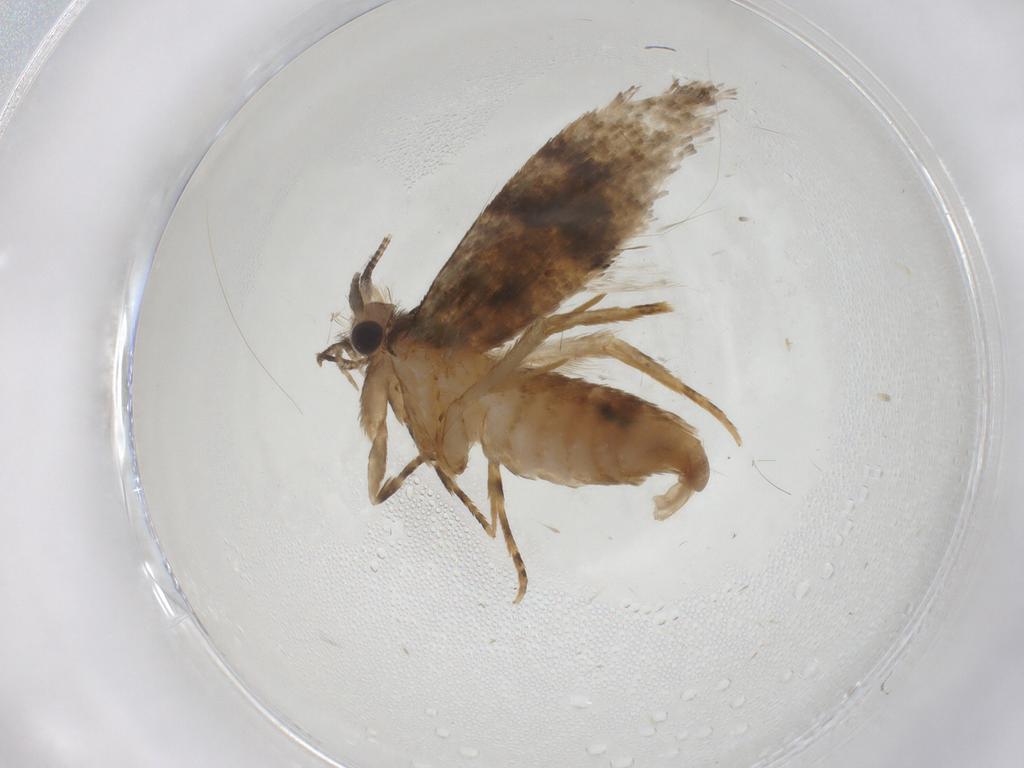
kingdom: Animalia
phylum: Arthropoda
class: Insecta
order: Lepidoptera
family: Tineidae
